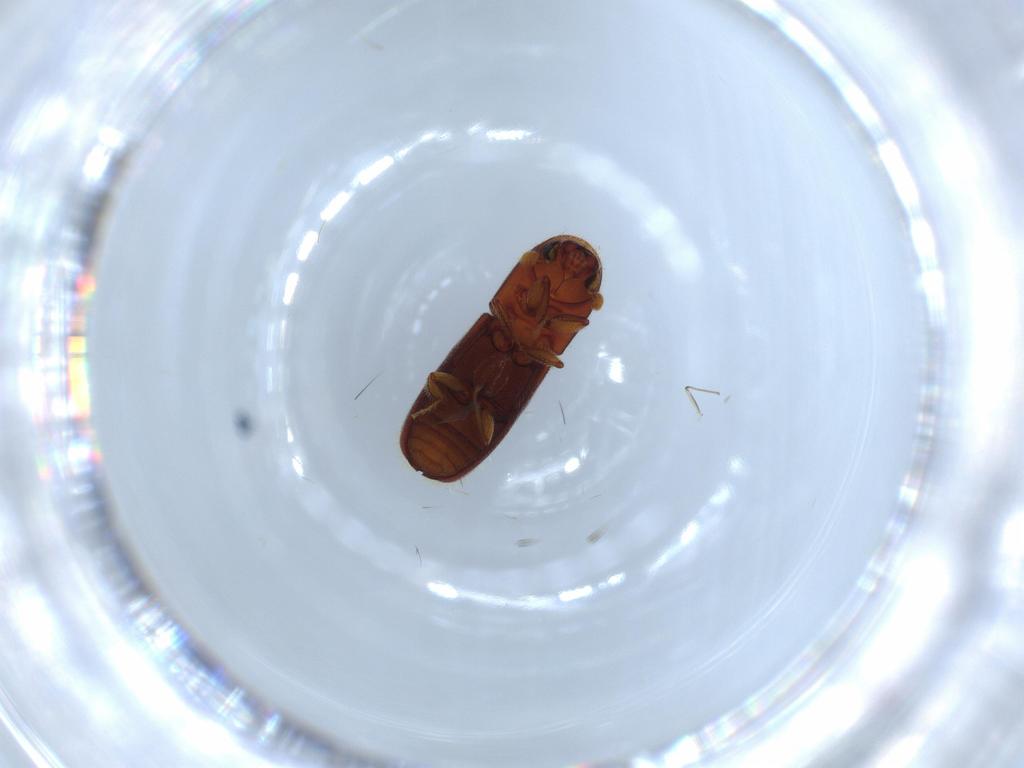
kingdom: Animalia
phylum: Arthropoda
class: Insecta
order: Coleoptera
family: Curculionidae
